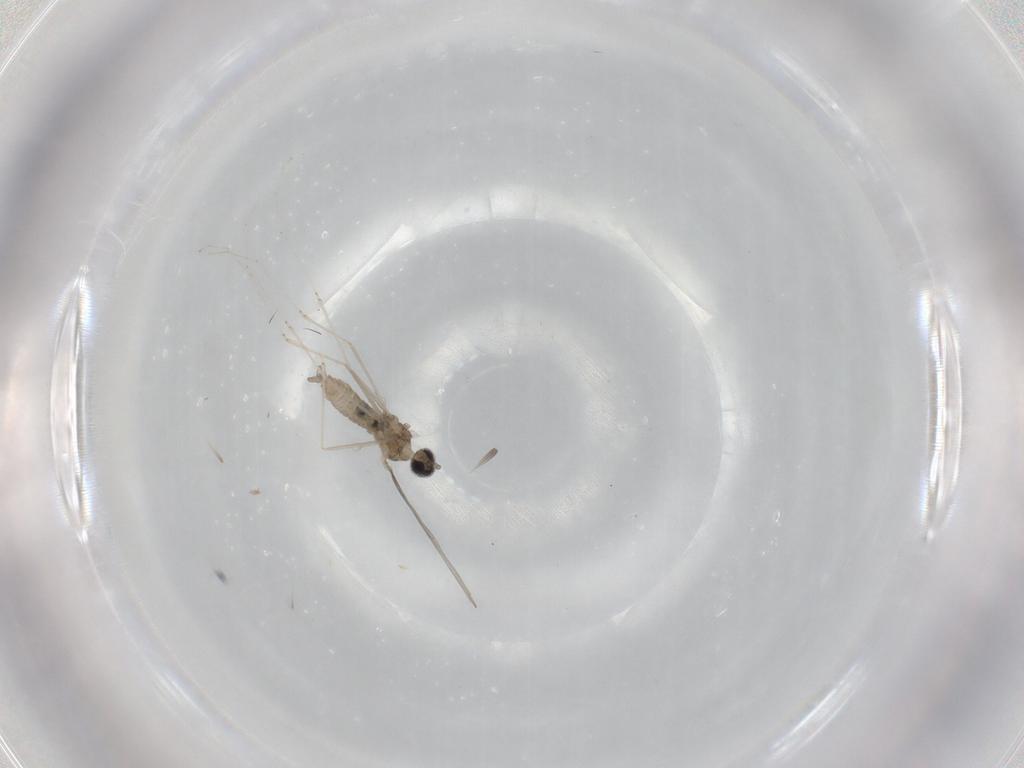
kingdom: Animalia
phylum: Arthropoda
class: Insecta
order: Diptera
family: Cecidomyiidae
